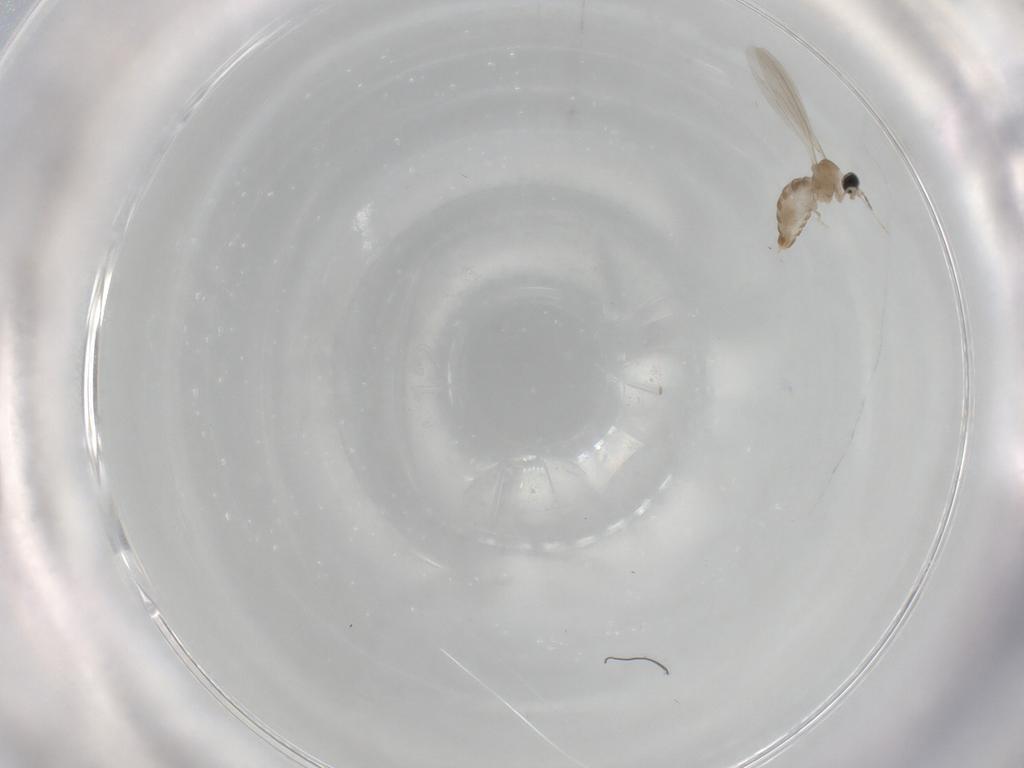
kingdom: Animalia
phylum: Arthropoda
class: Insecta
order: Diptera
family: Cecidomyiidae
